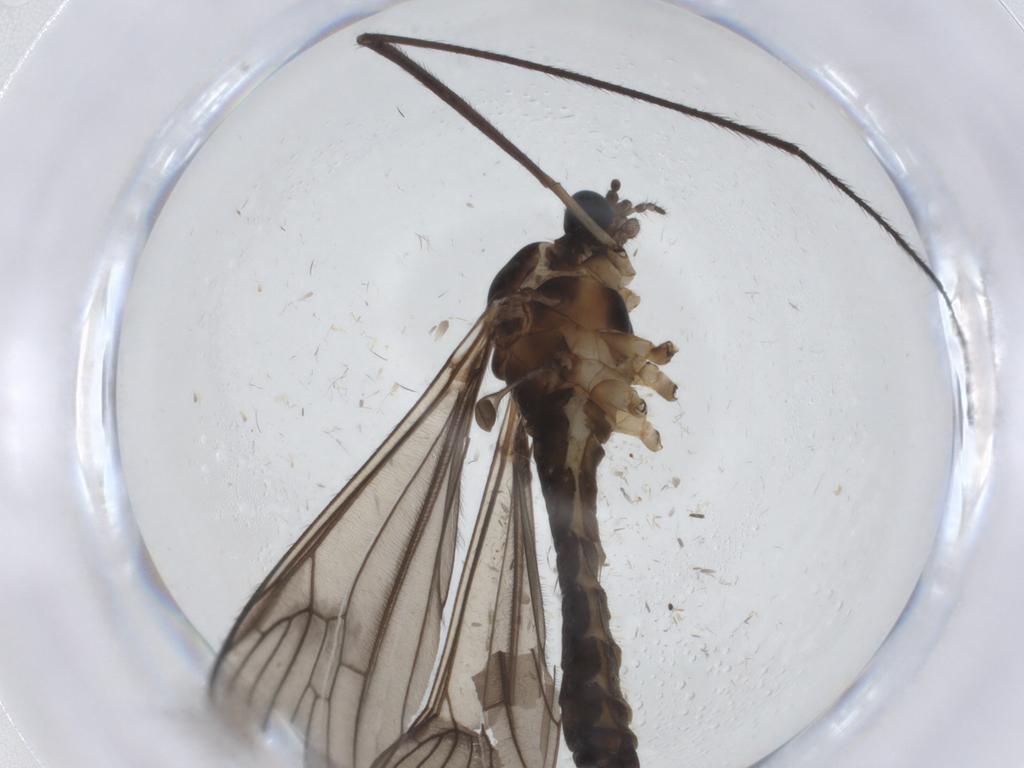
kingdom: Animalia
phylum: Arthropoda
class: Insecta
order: Diptera
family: Limoniidae
